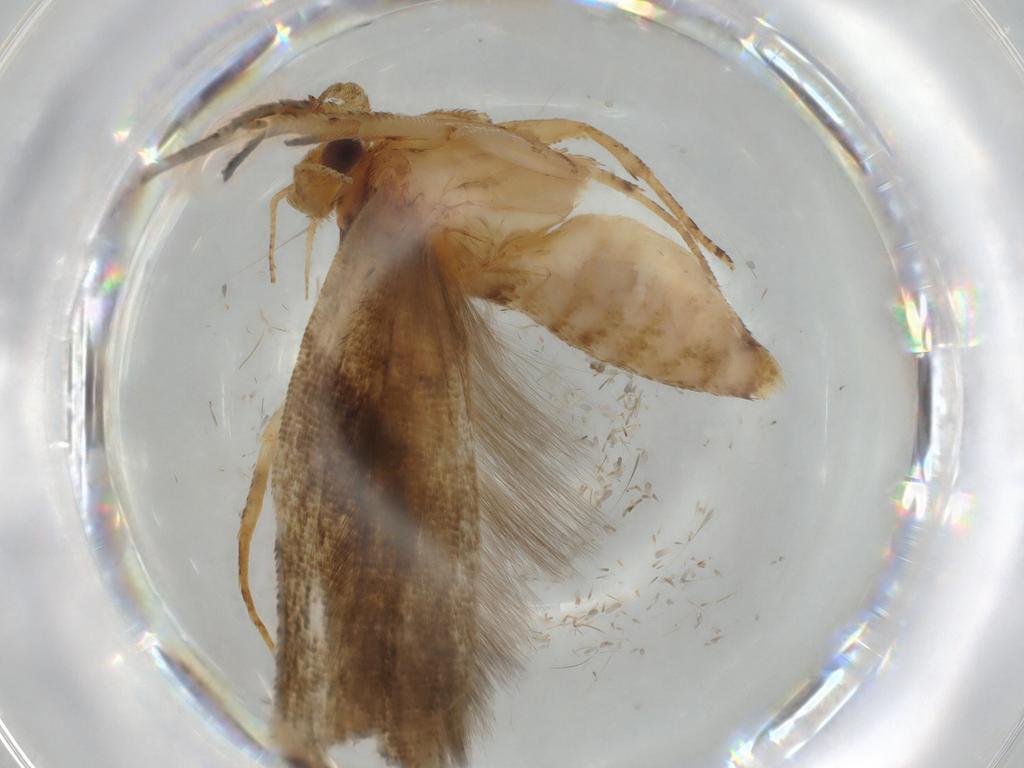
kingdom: Animalia
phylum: Arthropoda
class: Insecta
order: Lepidoptera
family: Gracillariidae
